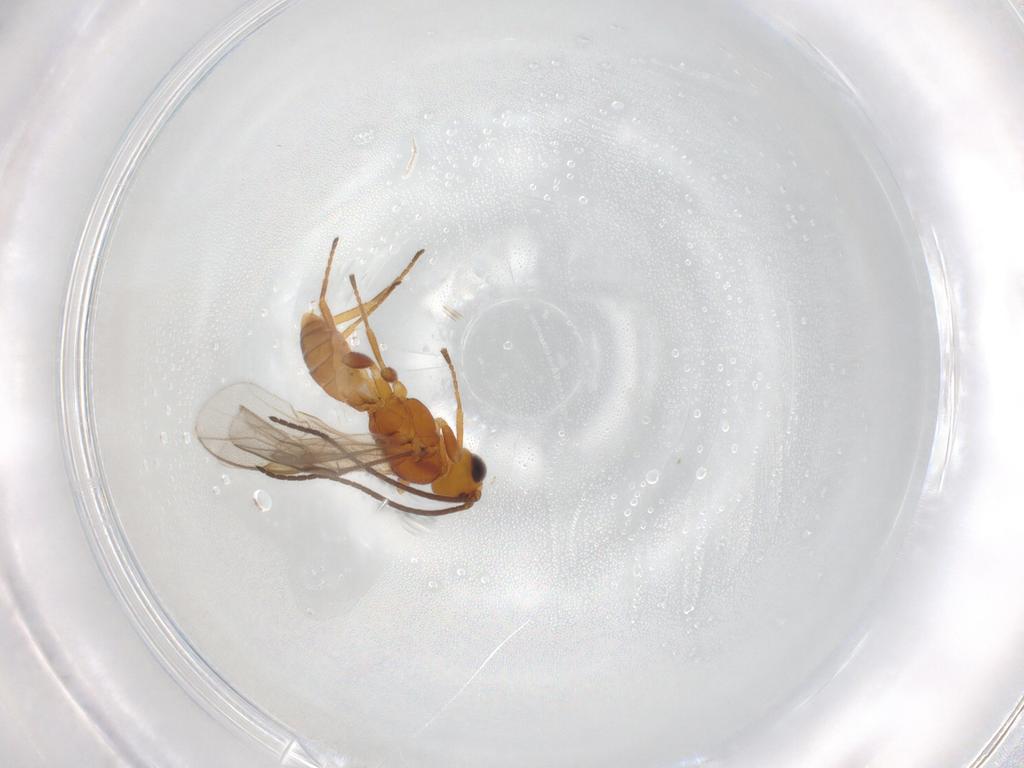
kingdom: Animalia
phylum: Arthropoda
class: Insecta
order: Hymenoptera
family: Braconidae
